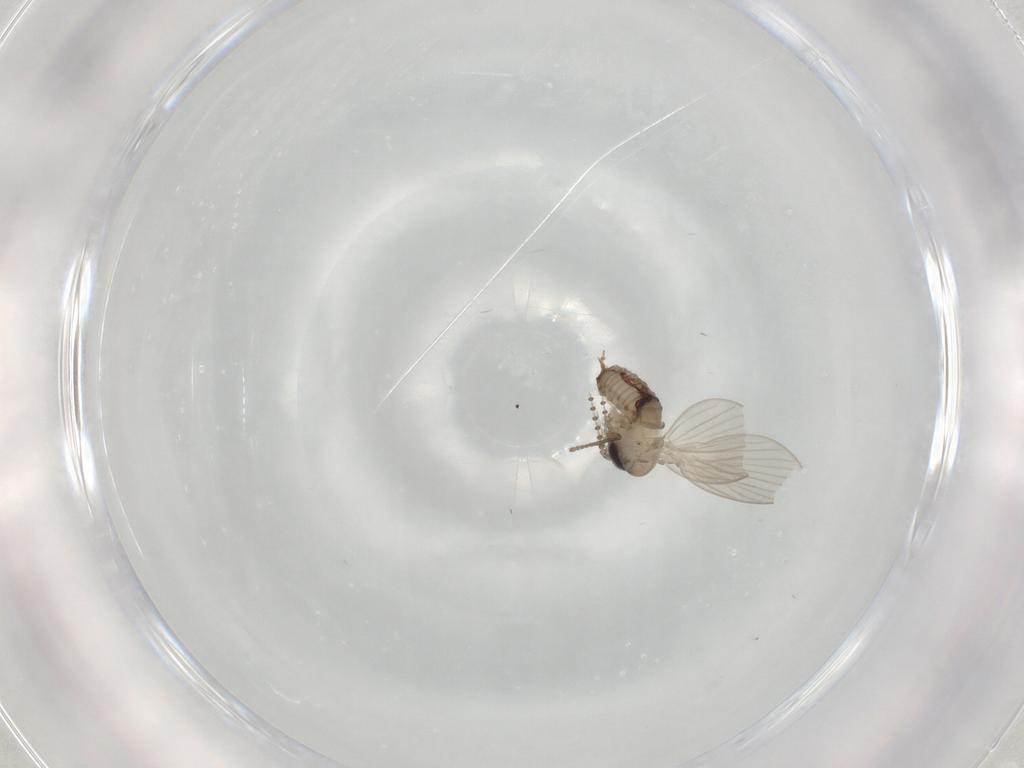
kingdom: Animalia
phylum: Arthropoda
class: Insecta
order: Diptera
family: Psychodidae
